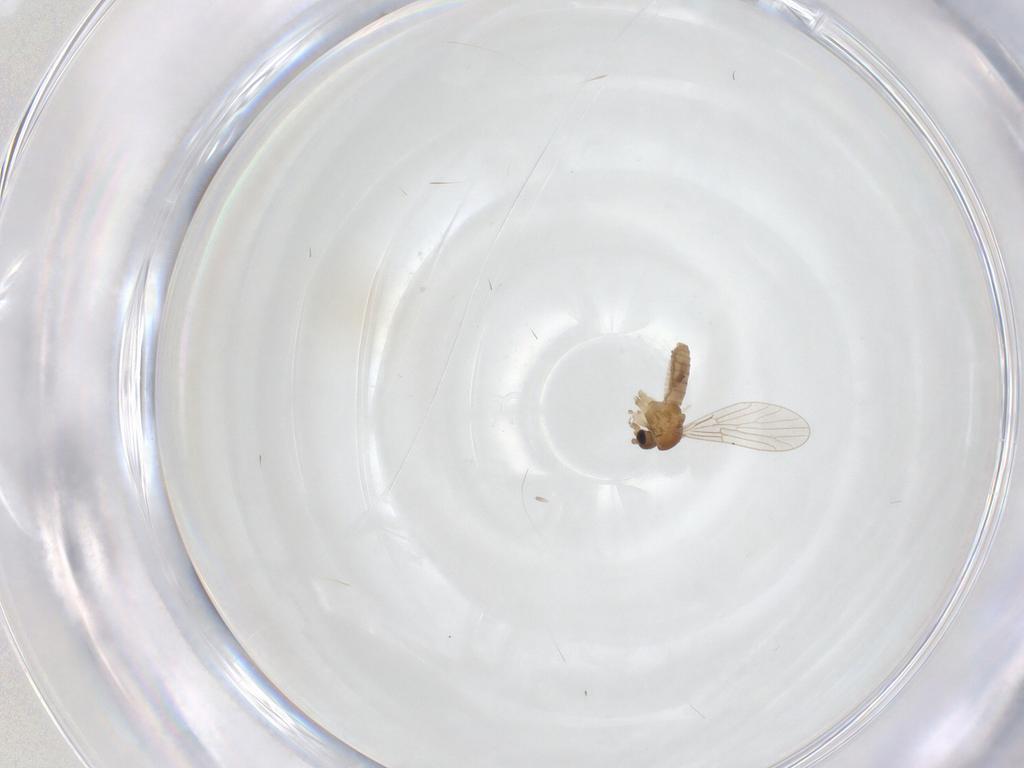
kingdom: Animalia
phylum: Arthropoda
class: Insecta
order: Diptera
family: Psychodidae
